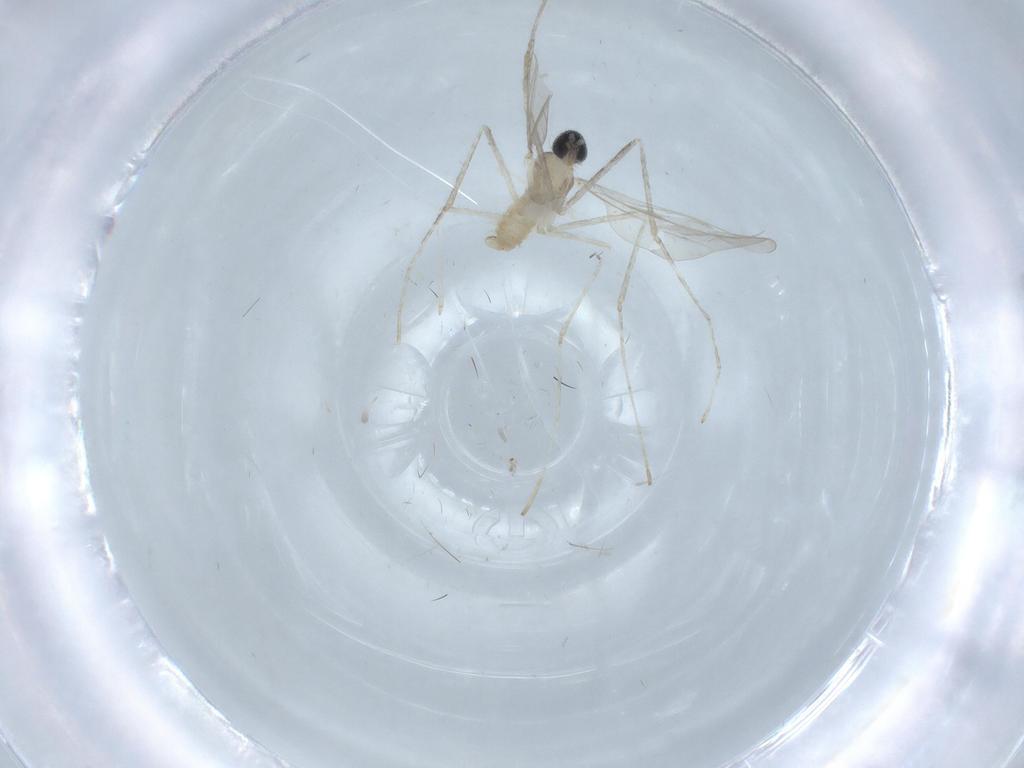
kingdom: Animalia
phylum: Arthropoda
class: Insecta
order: Diptera
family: Cecidomyiidae
